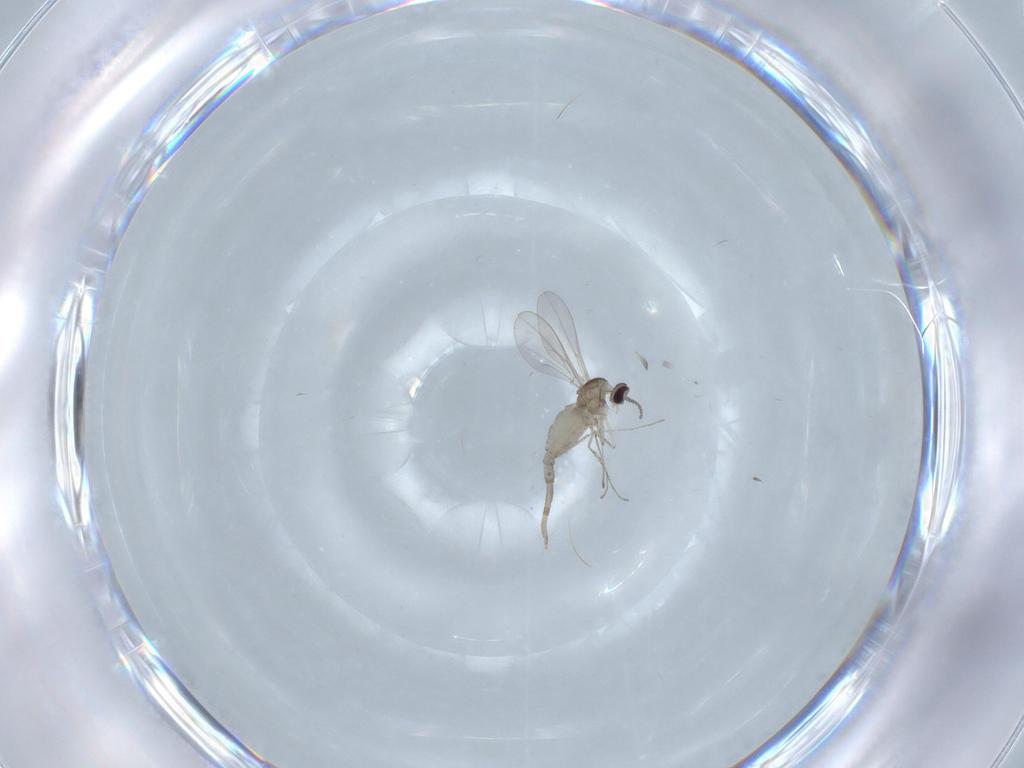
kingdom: Animalia
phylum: Arthropoda
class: Insecta
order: Diptera
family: Cecidomyiidae
